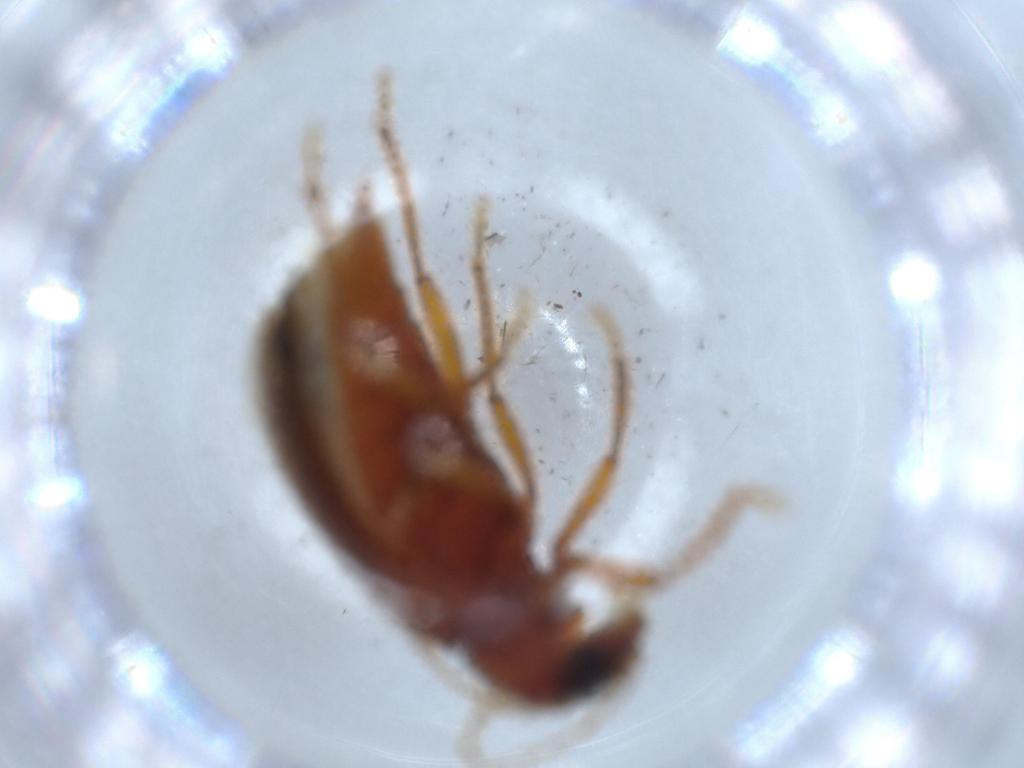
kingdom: Animalia
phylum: Arthropoda
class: Insecta
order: Coleoptera
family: Ptilodactylidae
